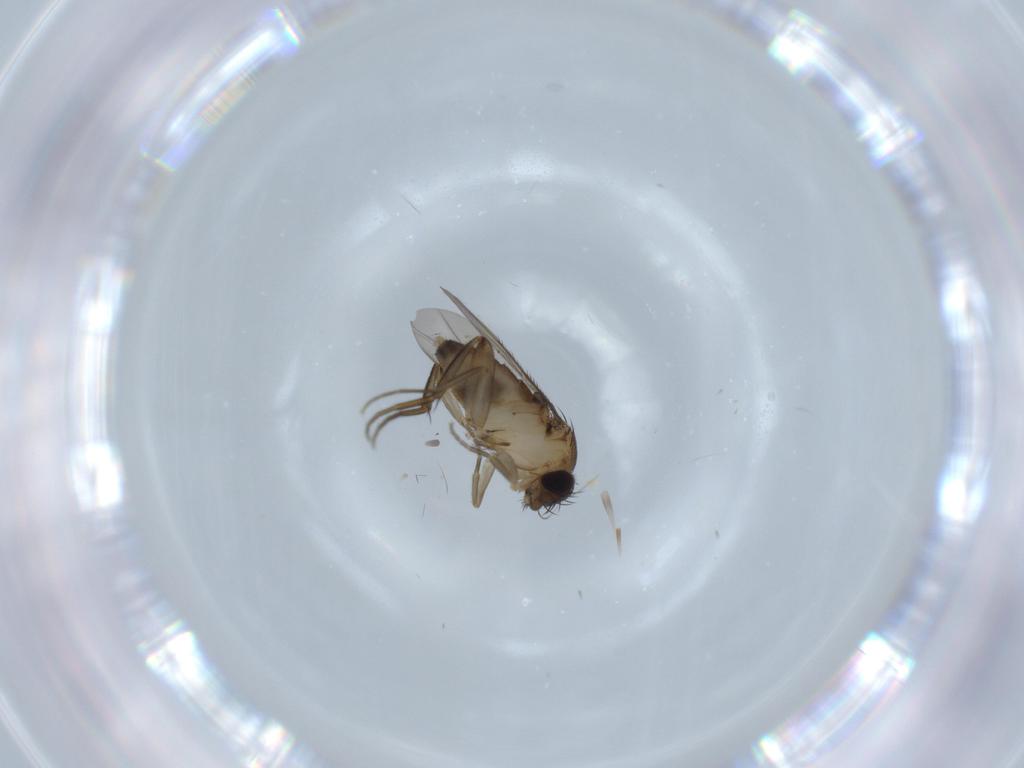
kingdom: Animalia
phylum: Arthropoda
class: Insecta
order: Diptera
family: Phoridae
